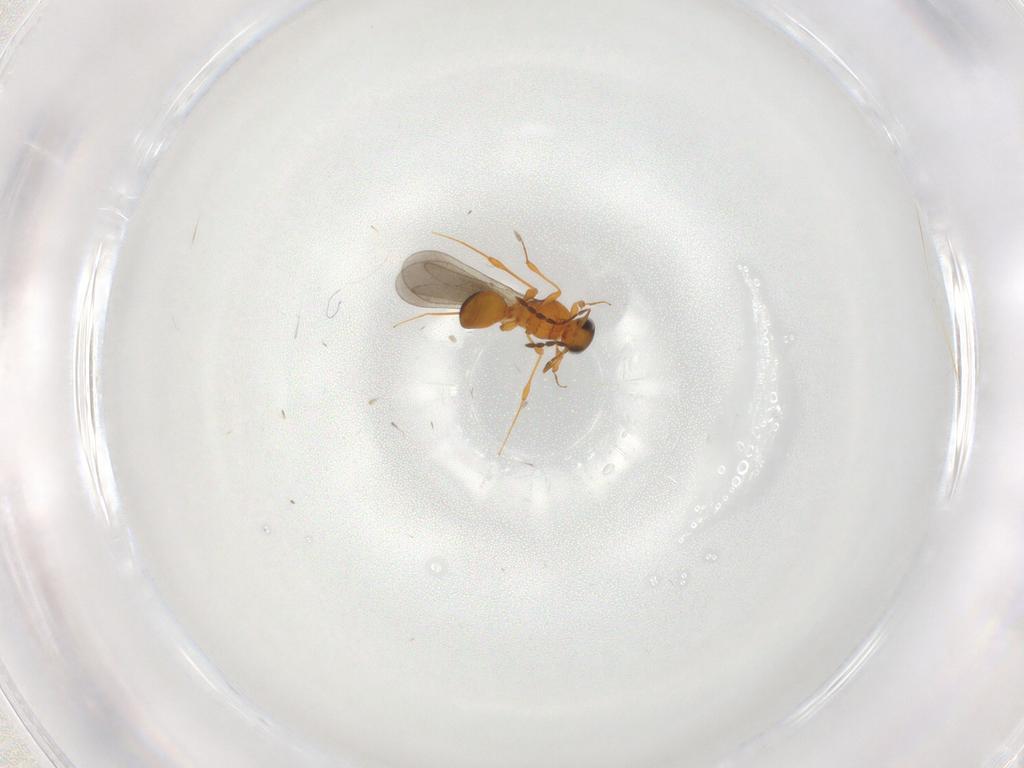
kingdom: Animalia
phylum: Arthropoda
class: Insecta
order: Hymenoptera
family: Platygastridae
